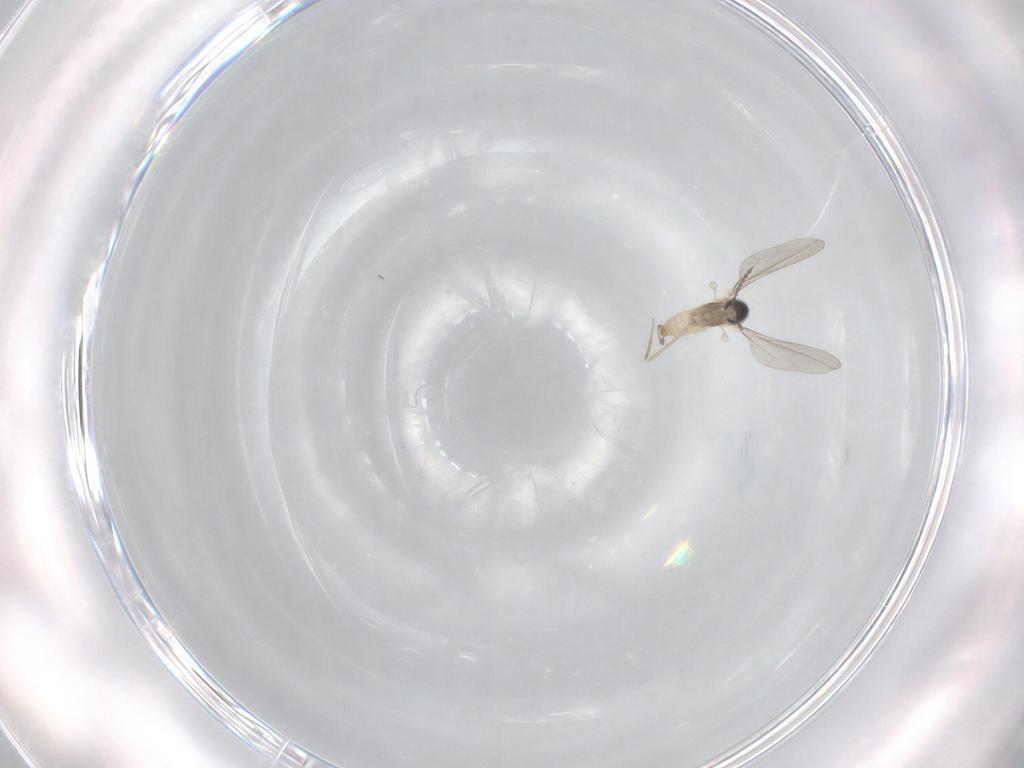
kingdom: Animalia
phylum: Arthropoda
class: Insecta
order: Diptera
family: Cecidomyiidae
